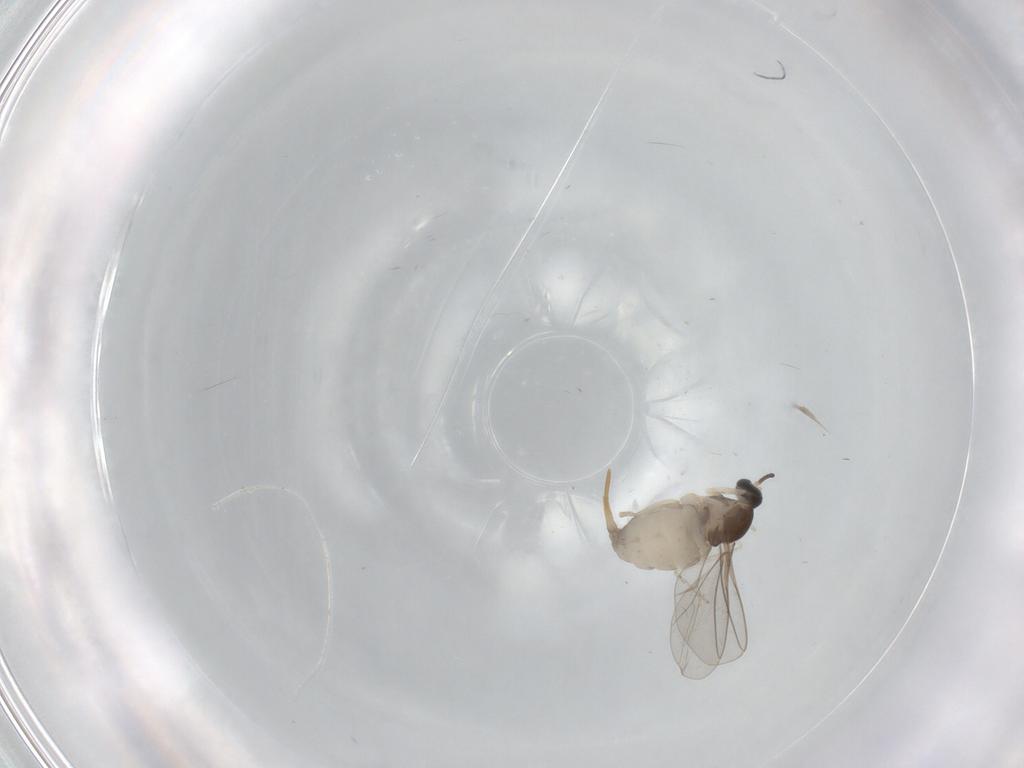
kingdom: Animalia
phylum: Arthropoda
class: Insecta
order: Diptera
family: Cecidomyiidae
